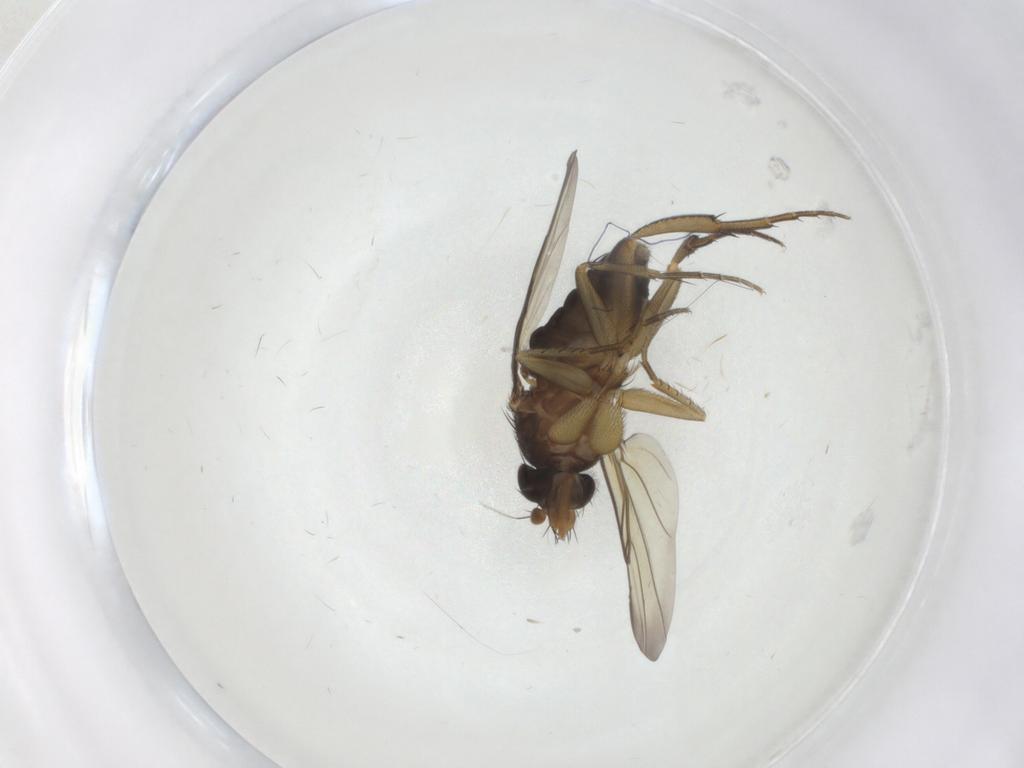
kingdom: Animalia
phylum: Arthropoda
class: Insecta
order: Diptera
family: Phoridae
